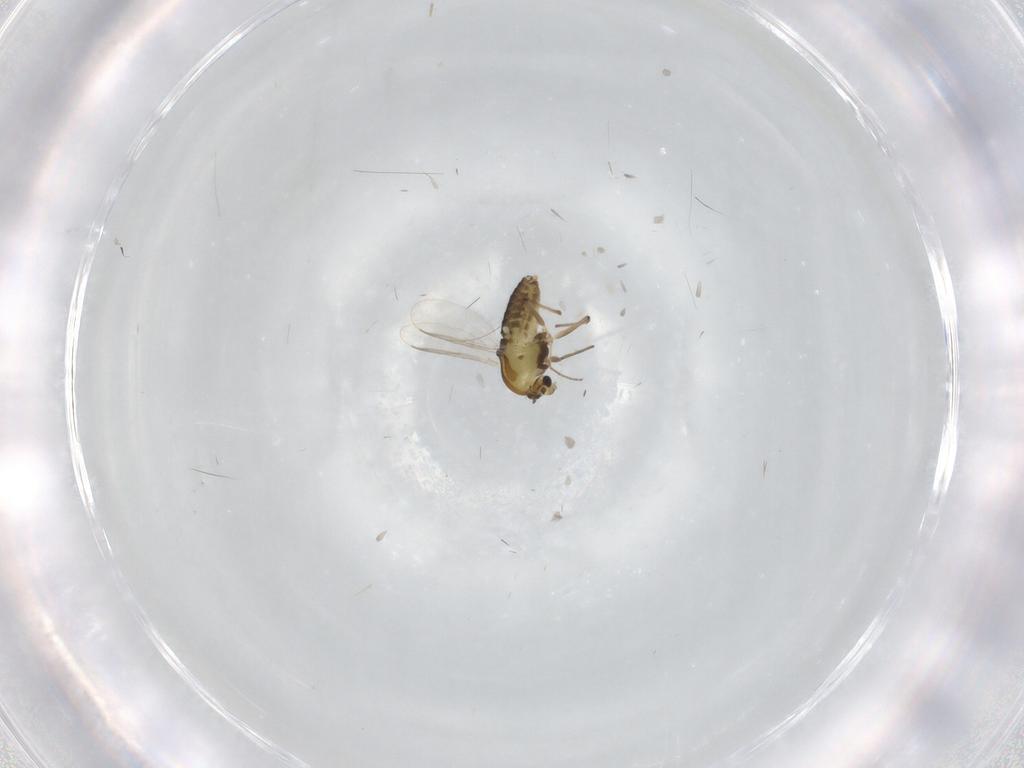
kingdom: Animalia
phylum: Arthropoda
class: Insecta
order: Diptera
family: Chironomidae
